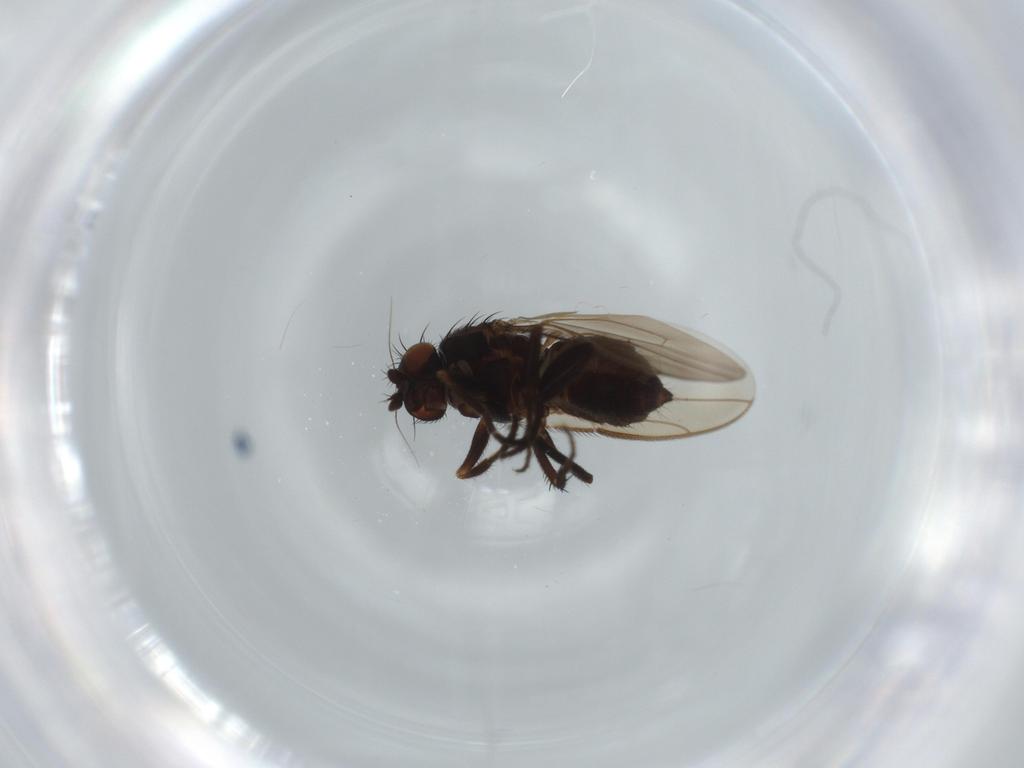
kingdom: Animalia
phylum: Arthropoda
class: Insecta
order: Diptera
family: Sphaeroceridae
